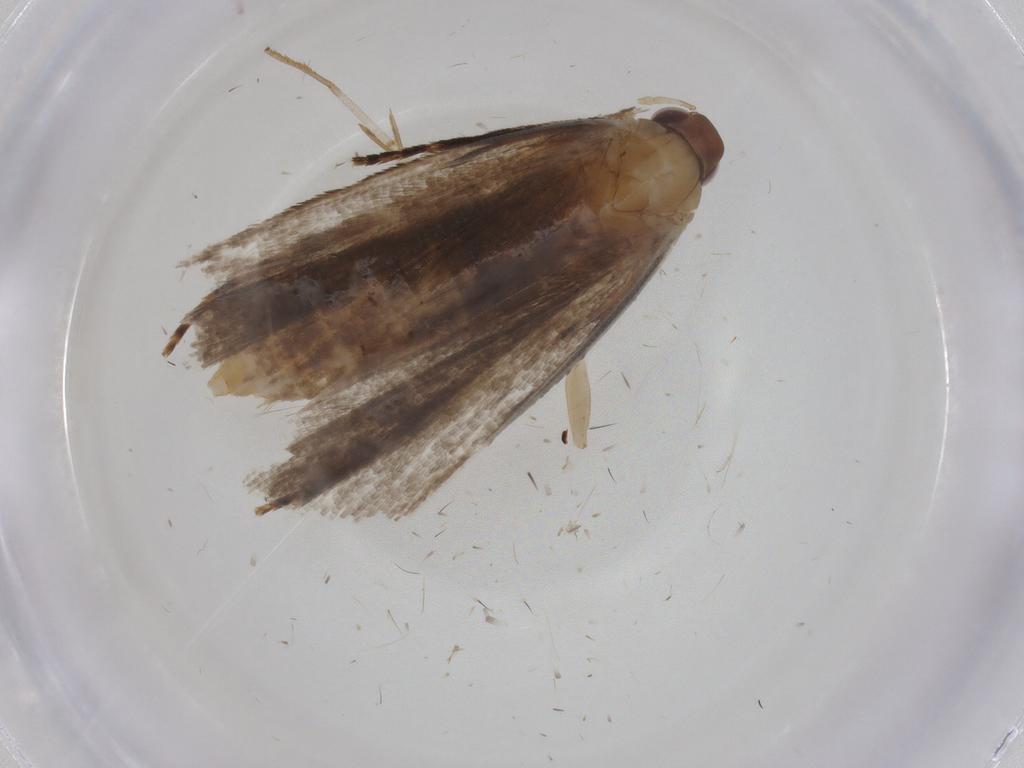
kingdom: Animalia
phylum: Arthropoda
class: Insecta
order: Lepidoptera
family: Crambidae
